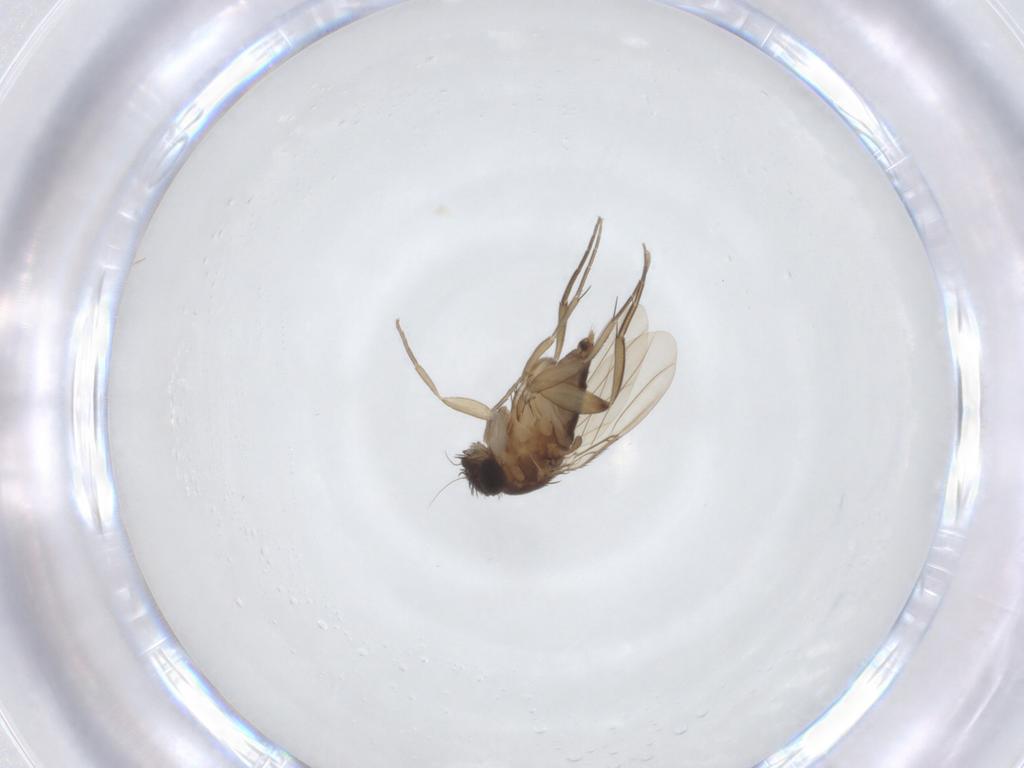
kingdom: Animalia
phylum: Arthropoda
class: Insecta
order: Diptera
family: Phoridae
